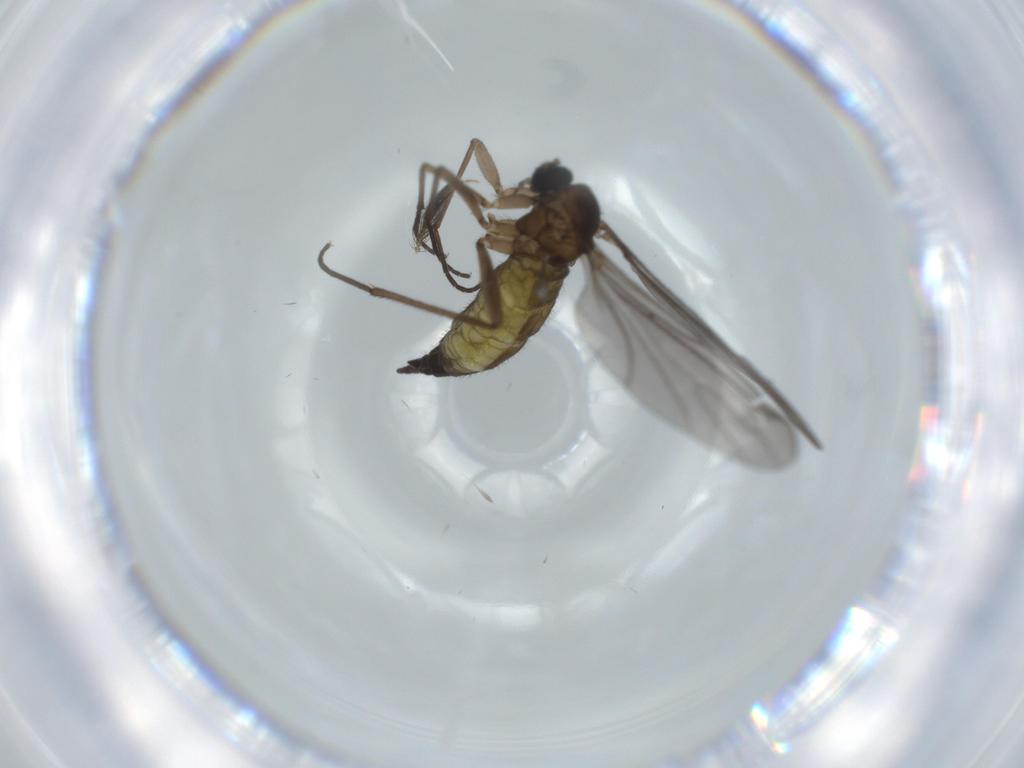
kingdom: Animalia
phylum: Arthropoda
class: Insecta
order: Diptera
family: Sciaridae
